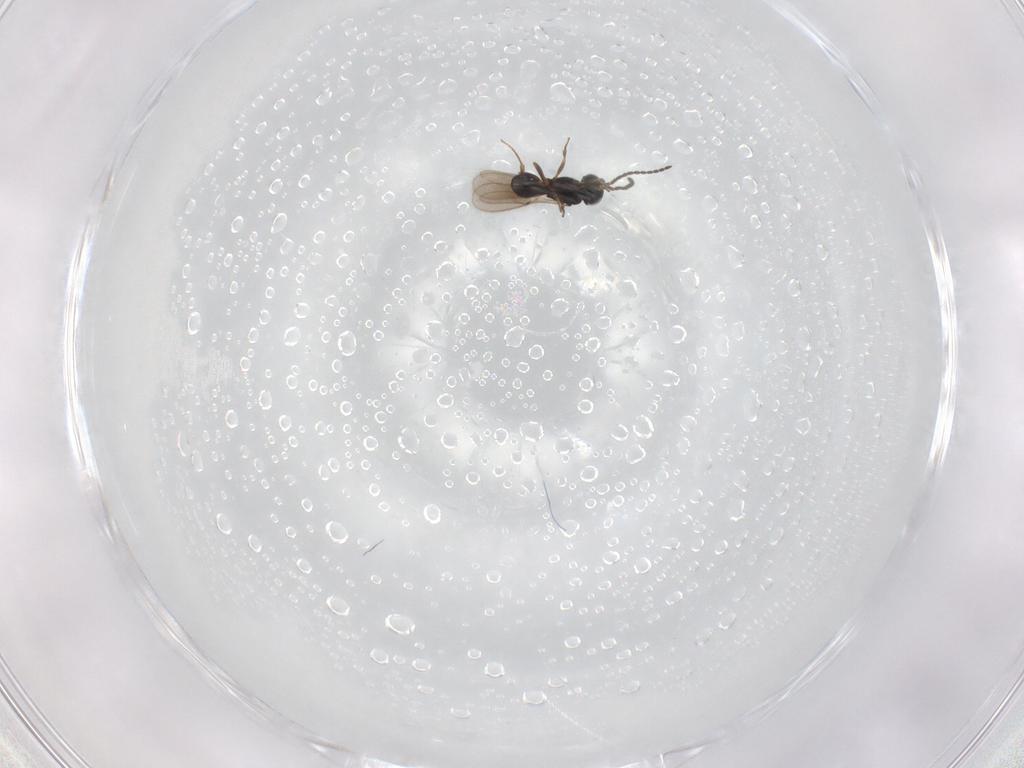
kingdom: Animalia
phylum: Arthropoda
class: Insecta
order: Hymenoptera
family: Scelionidae
